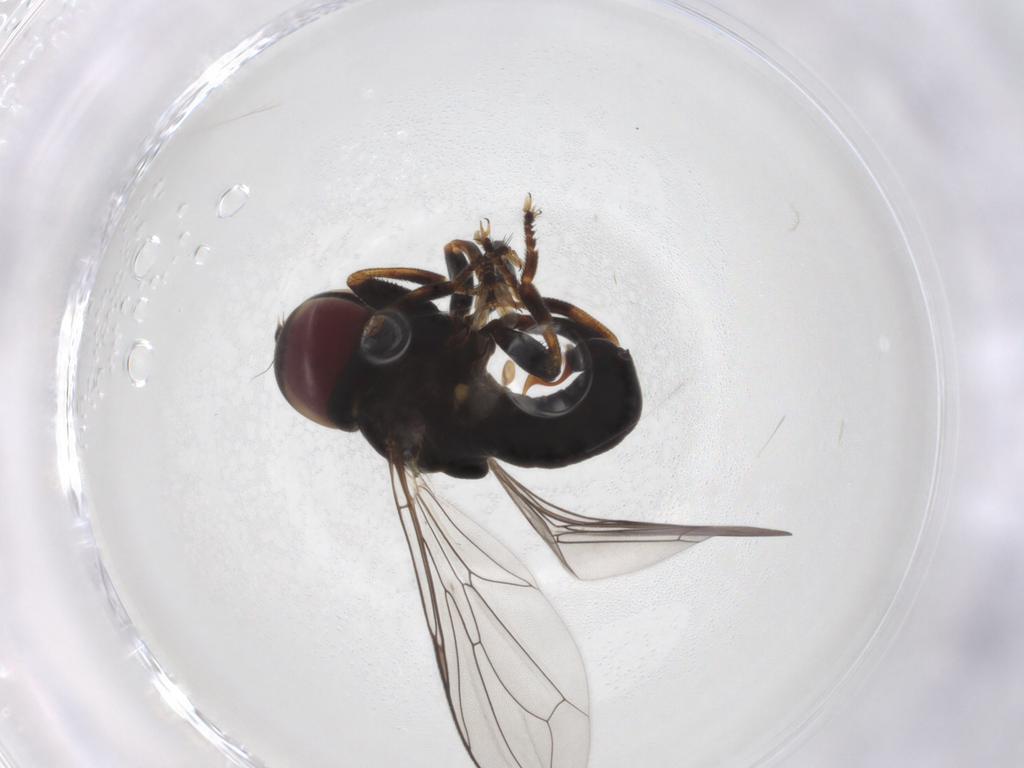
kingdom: Animalia
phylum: Arthropoda
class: Insecta
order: Diptera
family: Pipunculidae
